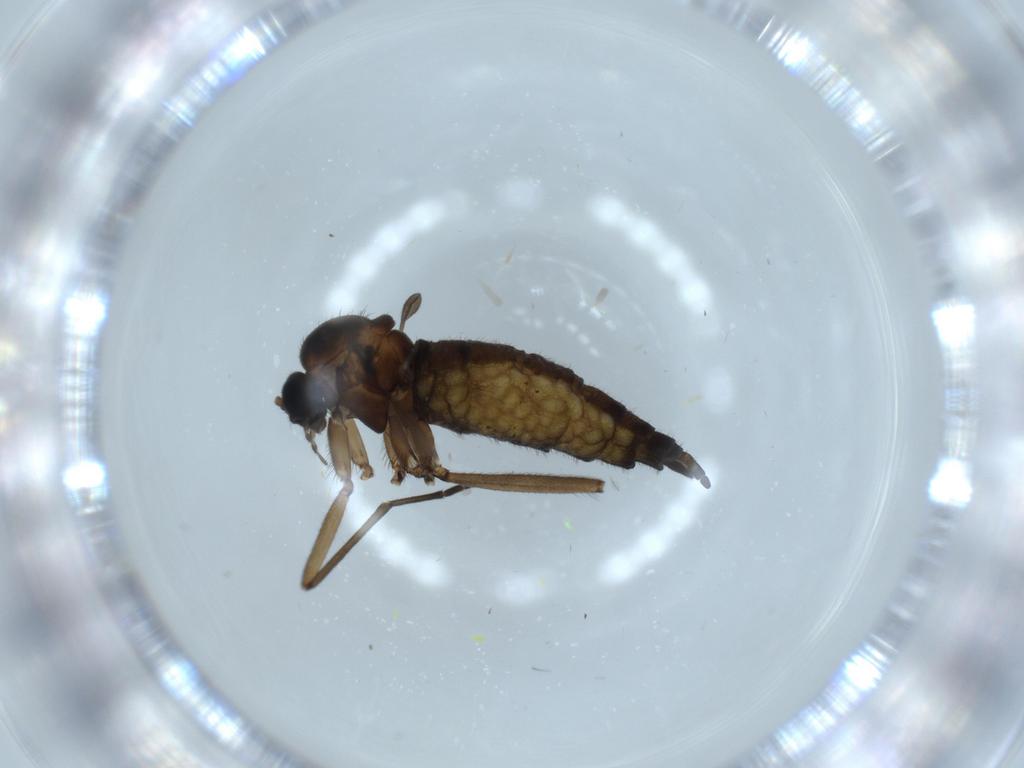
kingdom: Animalia
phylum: Arthropoda
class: Insecta
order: Diptera
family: Sciaridae
